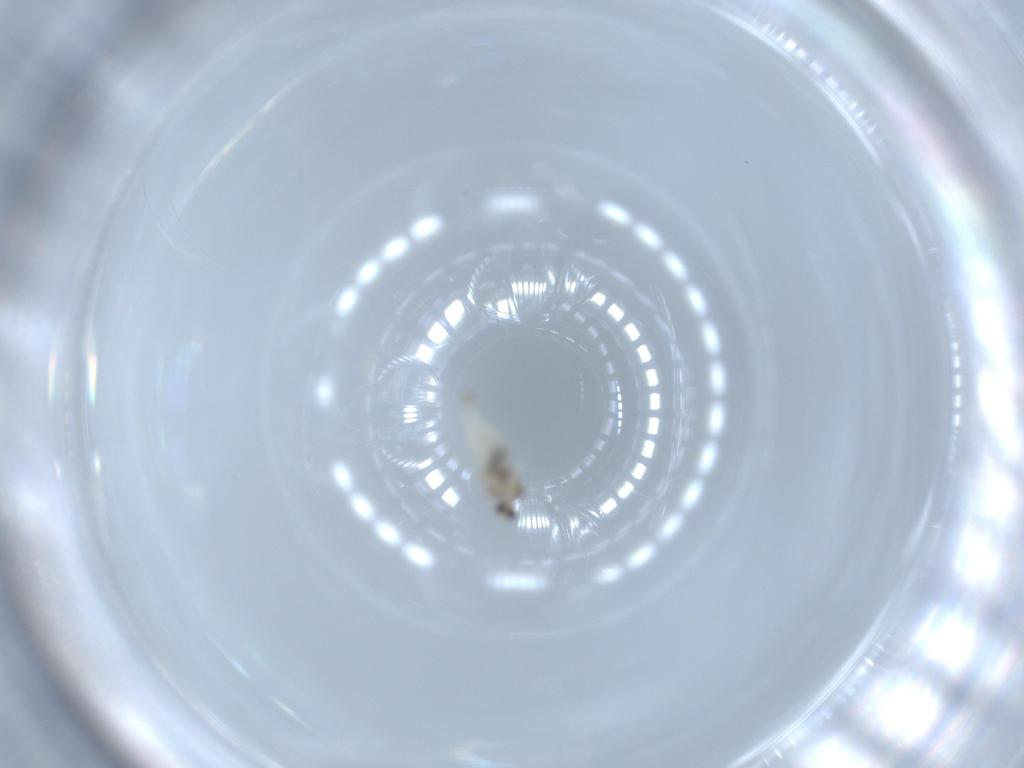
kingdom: Animalia
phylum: Arthropoda
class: Insecta
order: Diptera
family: Cecidomyiidae
